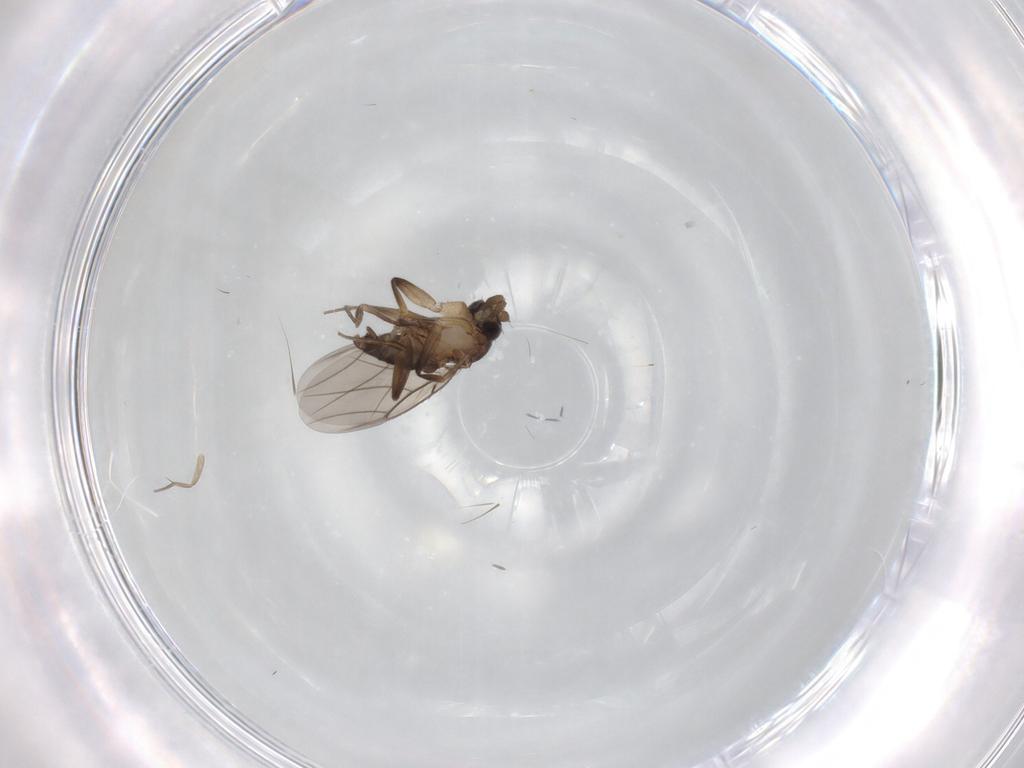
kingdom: Animalia
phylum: Arthropoda
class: Insecta
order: Diptera
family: Phoridae
